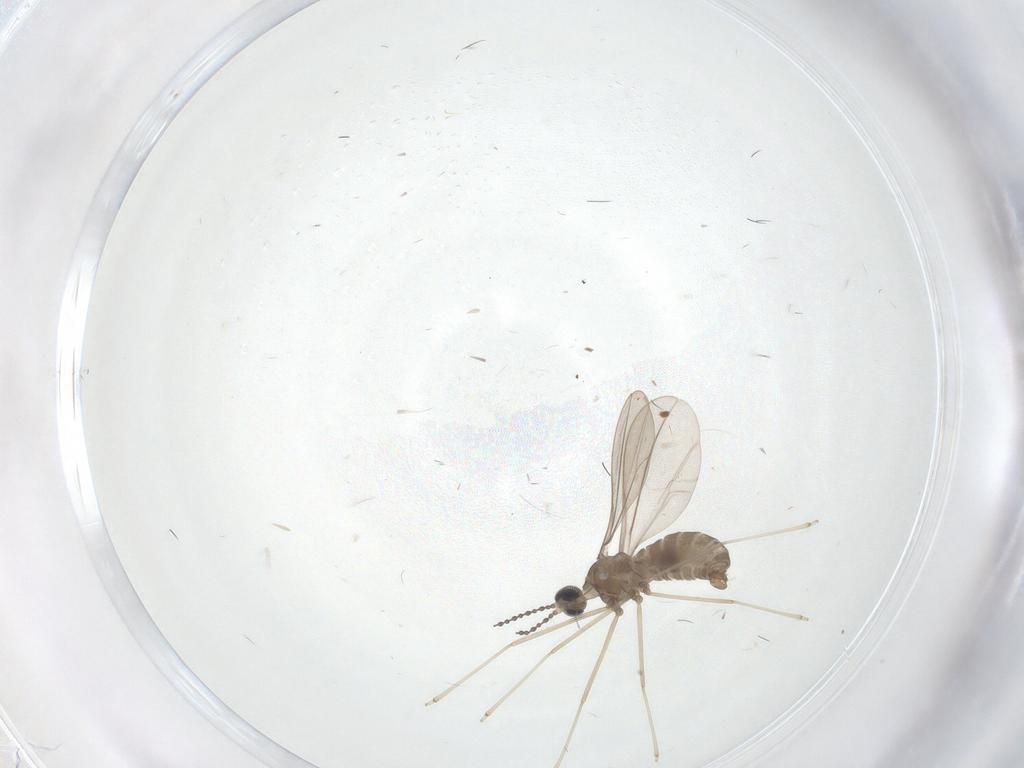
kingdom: Animalia
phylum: Arthropoda
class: Insecta
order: Diptera
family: Cecidomyiidae
